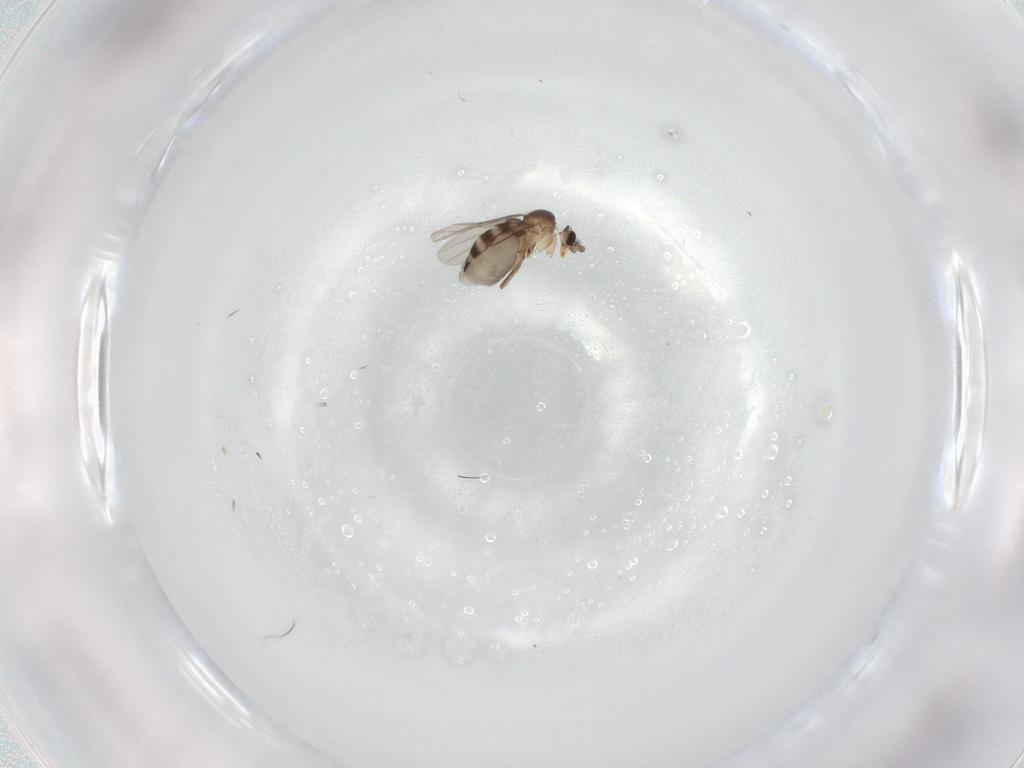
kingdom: Animalia
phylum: Arthropoda
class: Insecta
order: Diptera
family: Phoridae
